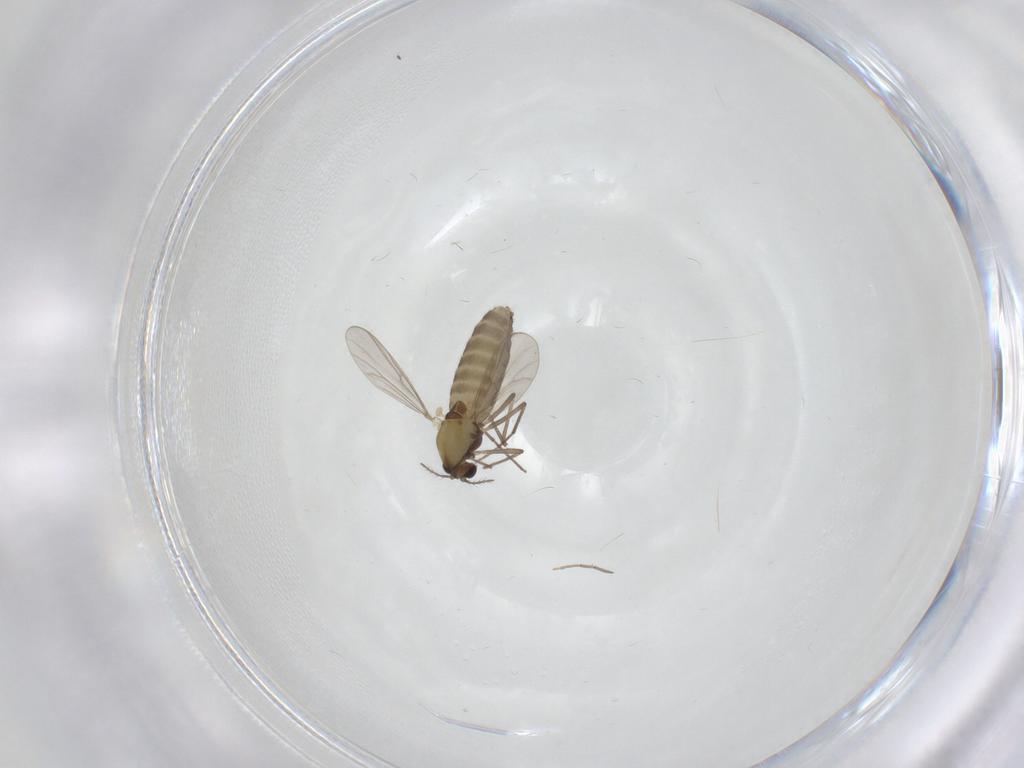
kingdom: Animalia
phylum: Arthropoda
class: Insecta
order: Diptera
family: Chironomidae
